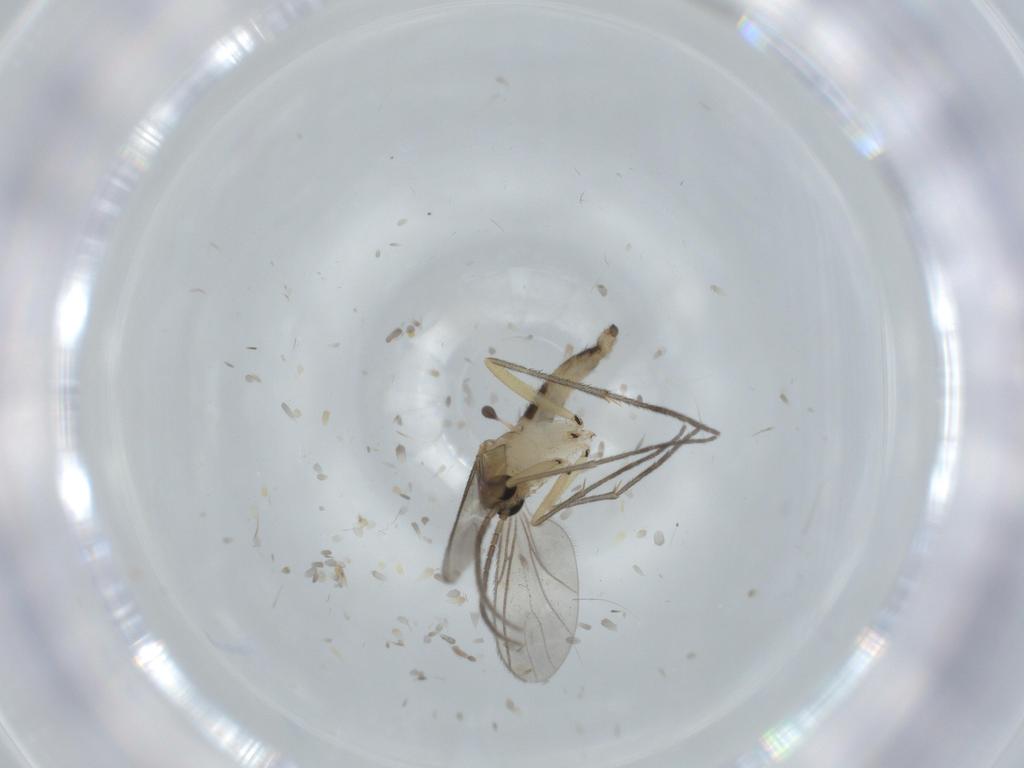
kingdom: Animalia
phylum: Arthropoda
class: Insecta
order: Diptera
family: Sciaridae
